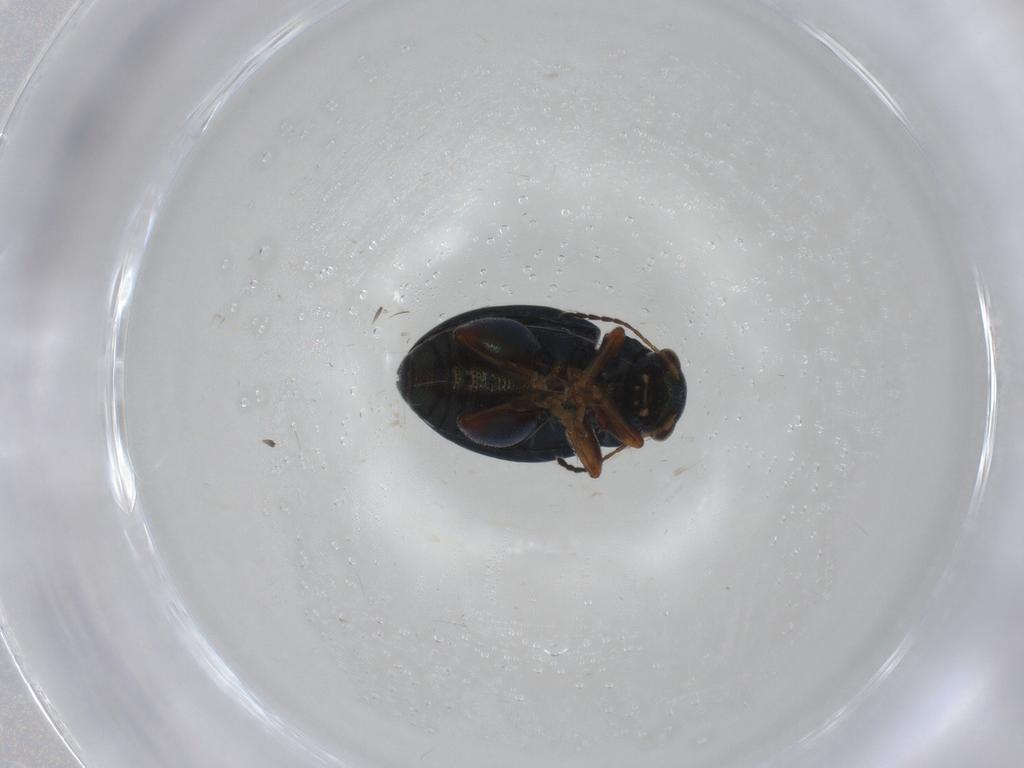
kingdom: Animalia
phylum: Arthropoda
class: Insecta
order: Coleoptera
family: Chrysomelidae
